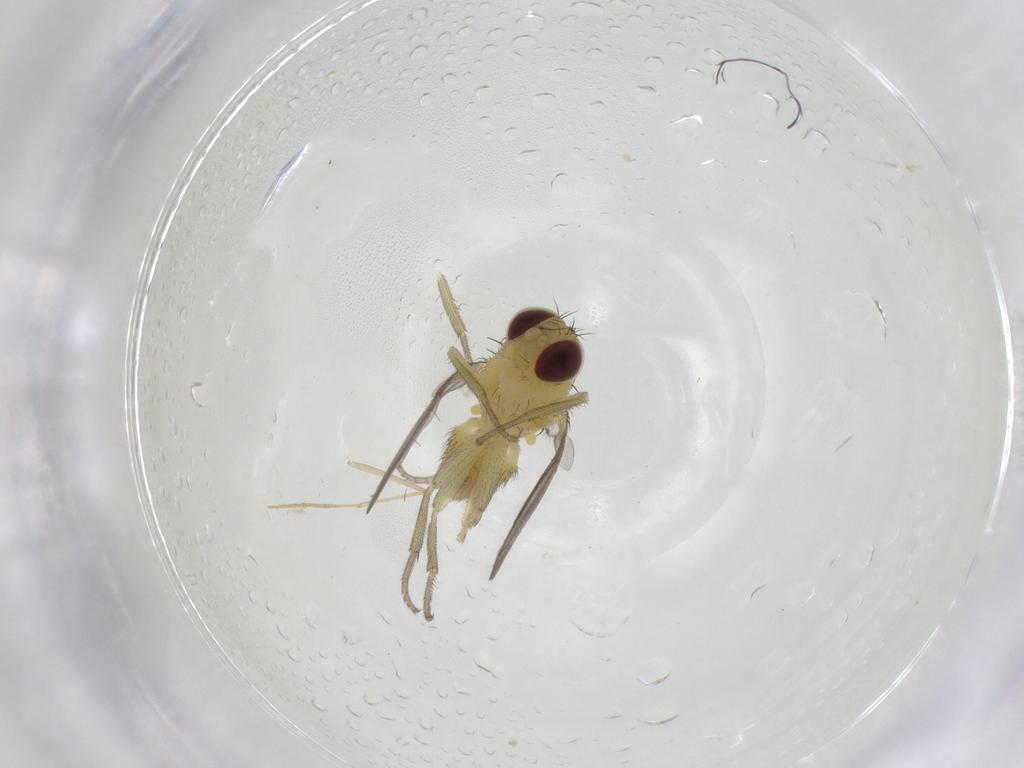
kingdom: Animalia
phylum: Arthropoda
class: Insecta
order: Diptera
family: Agromyzidae
